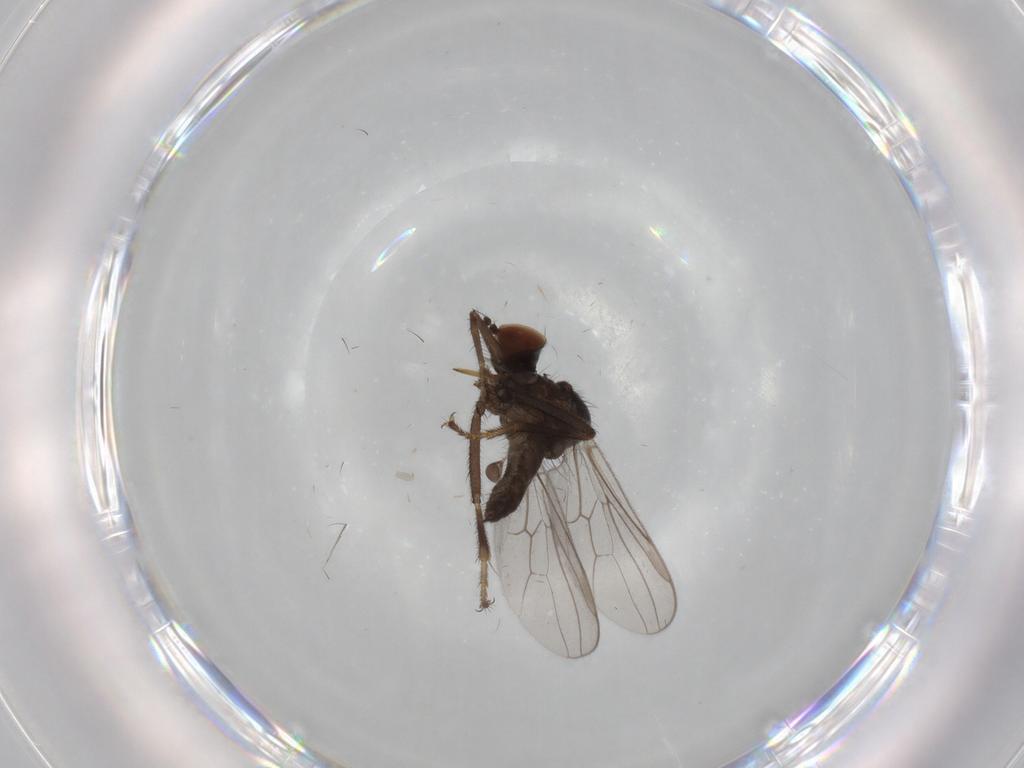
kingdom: Animalia
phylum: Arthropoda
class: Insecta
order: Diptera
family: Hybotidae
